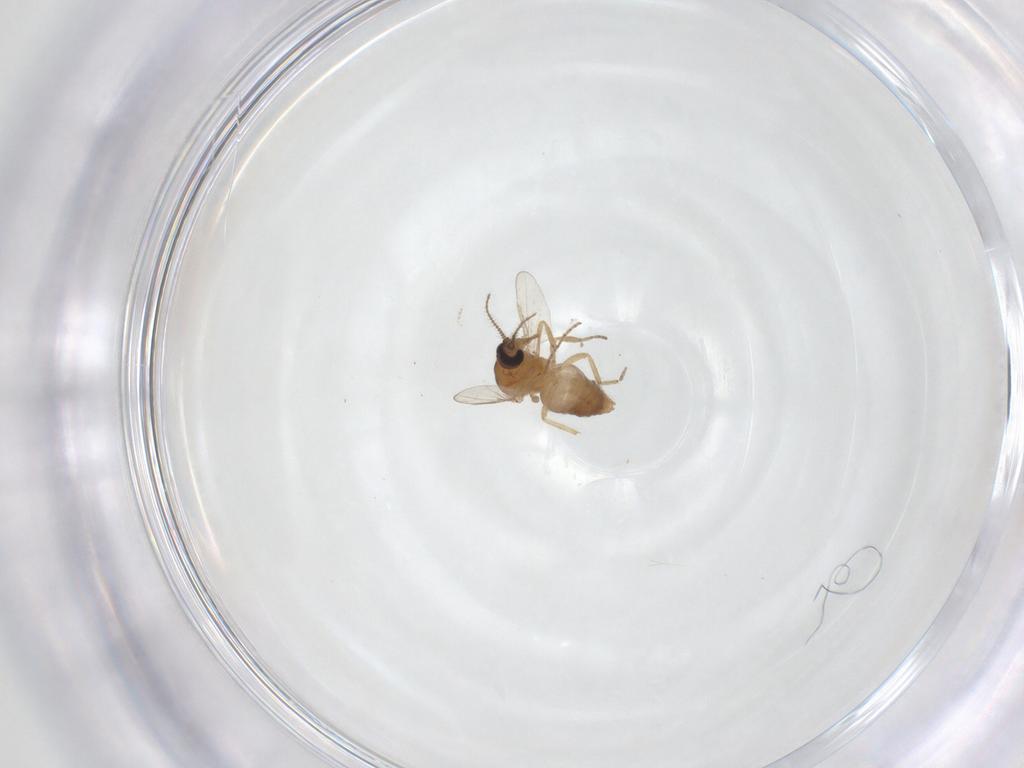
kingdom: Animalia
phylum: Arthropoda
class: Insecta
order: Diptera
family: Ceratopogonidae
